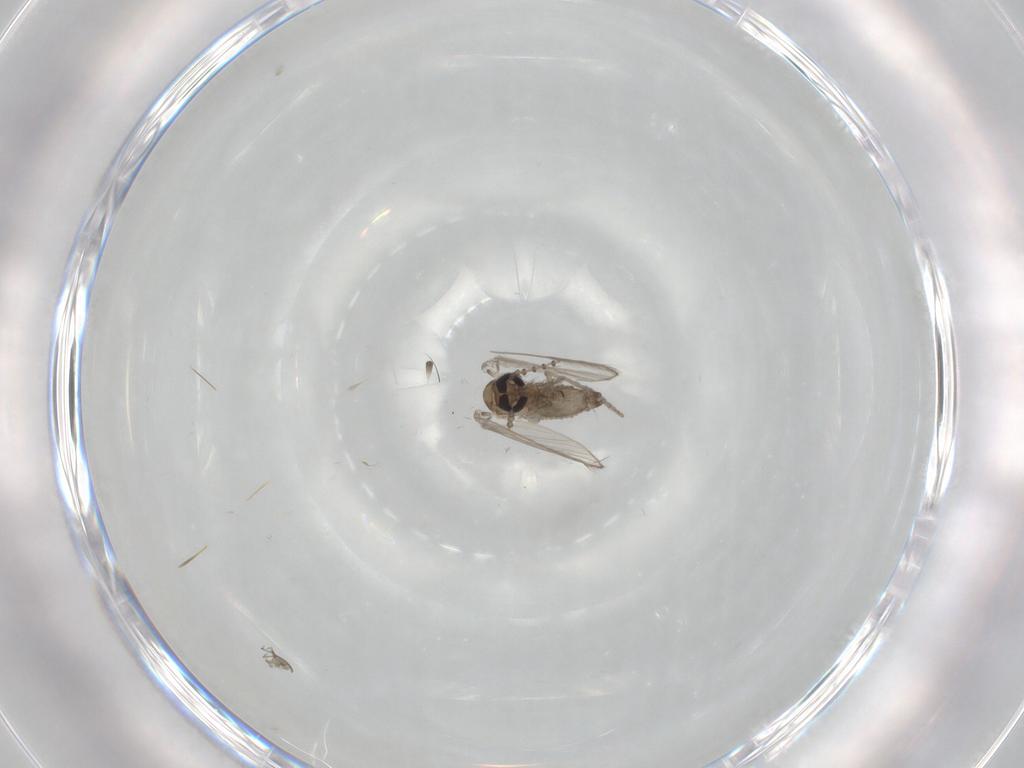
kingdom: Animalia
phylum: Arthropoda
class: Insecta
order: Diptera
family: Psychodidae
